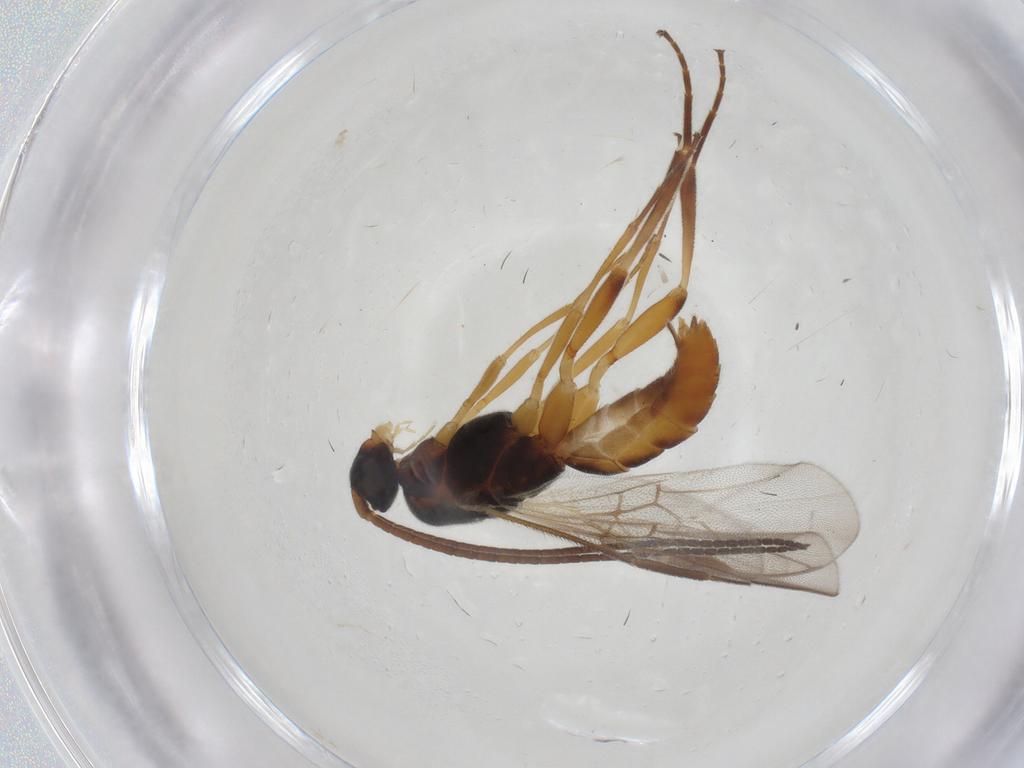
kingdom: Animalia
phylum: Arthropoda
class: Insecta
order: Hymenoptera
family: Braconidae
